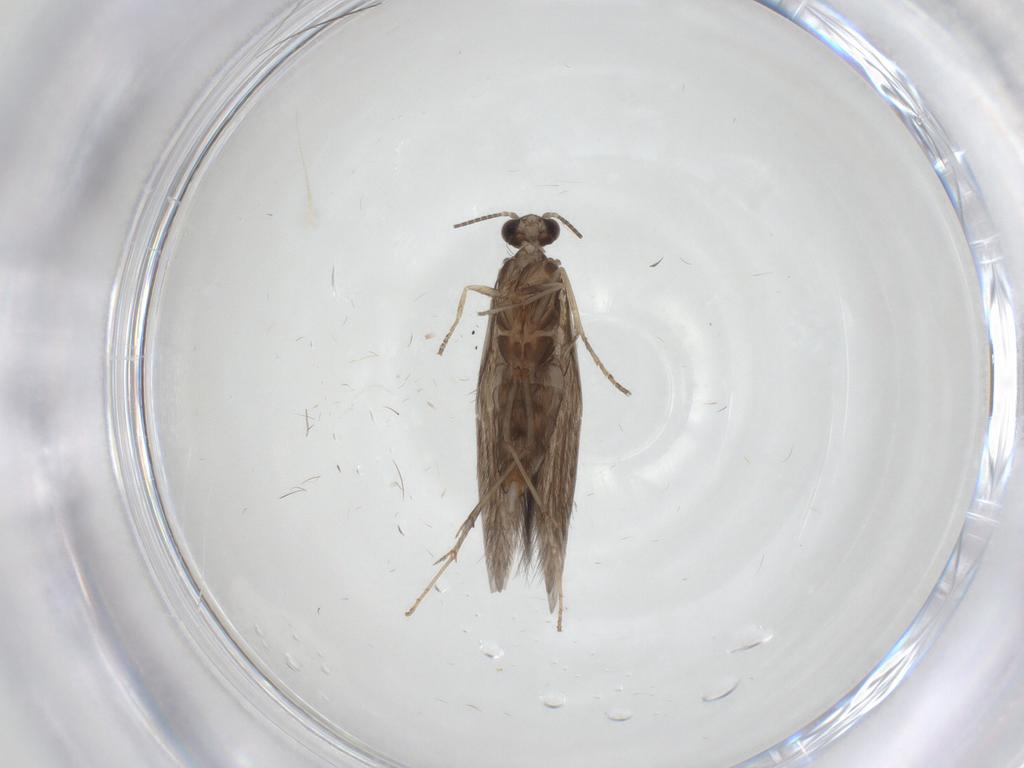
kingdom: Animalia
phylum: Arthropoda
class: Insecta
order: Trichoptera
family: Hydroptilidae
